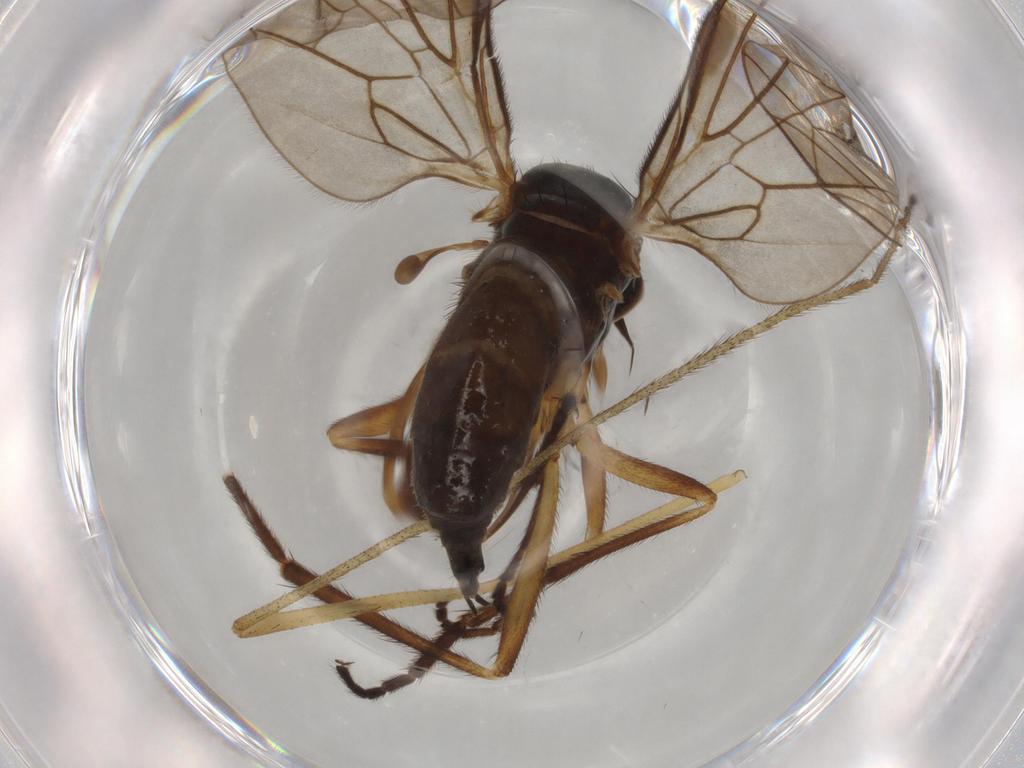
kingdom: Animalia
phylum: Arthropoda
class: Insecta
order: Diptera
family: Empididae
